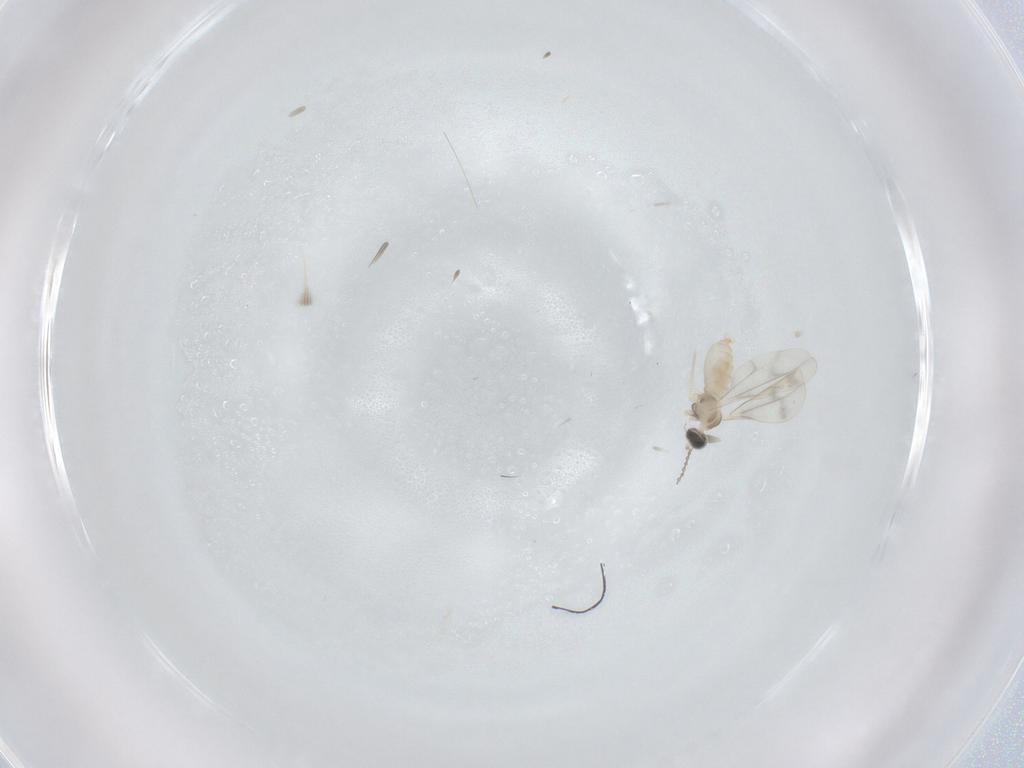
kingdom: Animalia
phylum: Arthropoda
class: Insecta
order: Diptera
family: Cecidomyiidae
